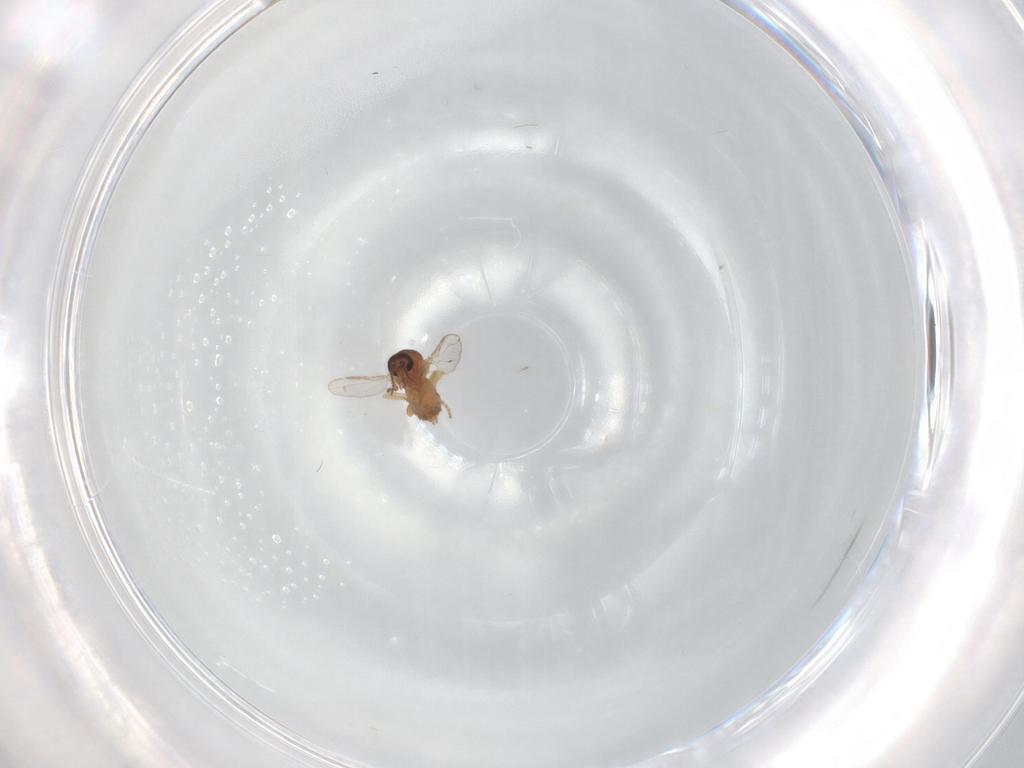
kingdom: Animalia
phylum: Arthropoda
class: Insecta
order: Diptera
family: Ceratopogonidae
